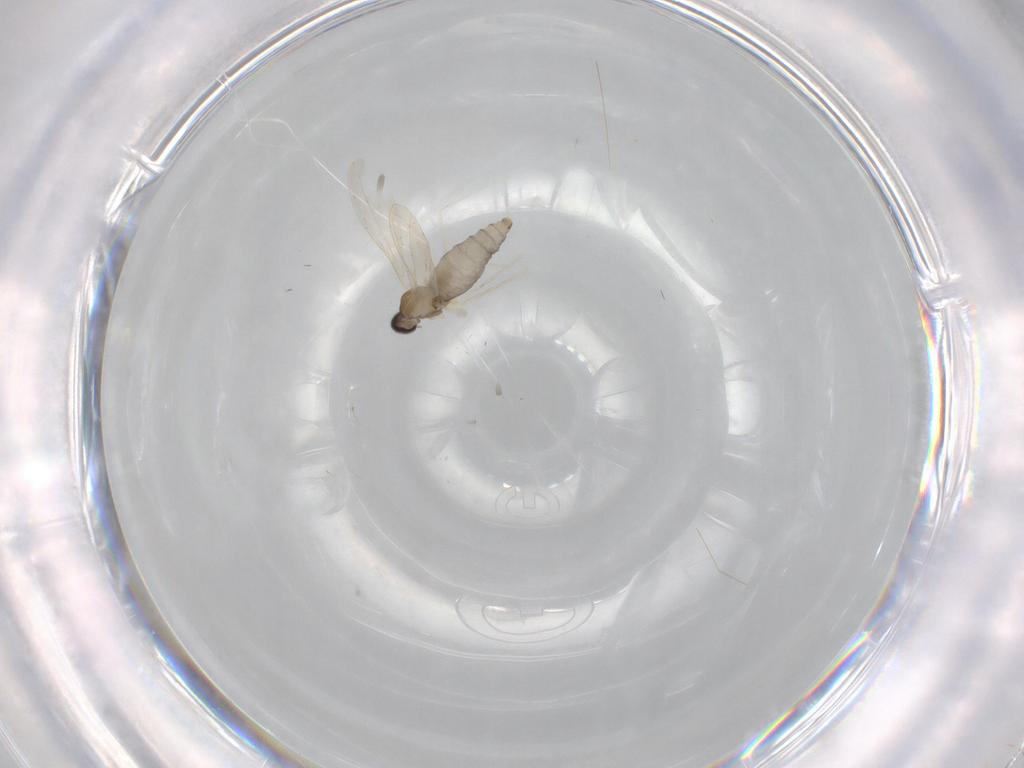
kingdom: Animalia
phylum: Arthropoda
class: Insecta
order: Diptera
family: Cecidomyiidae
